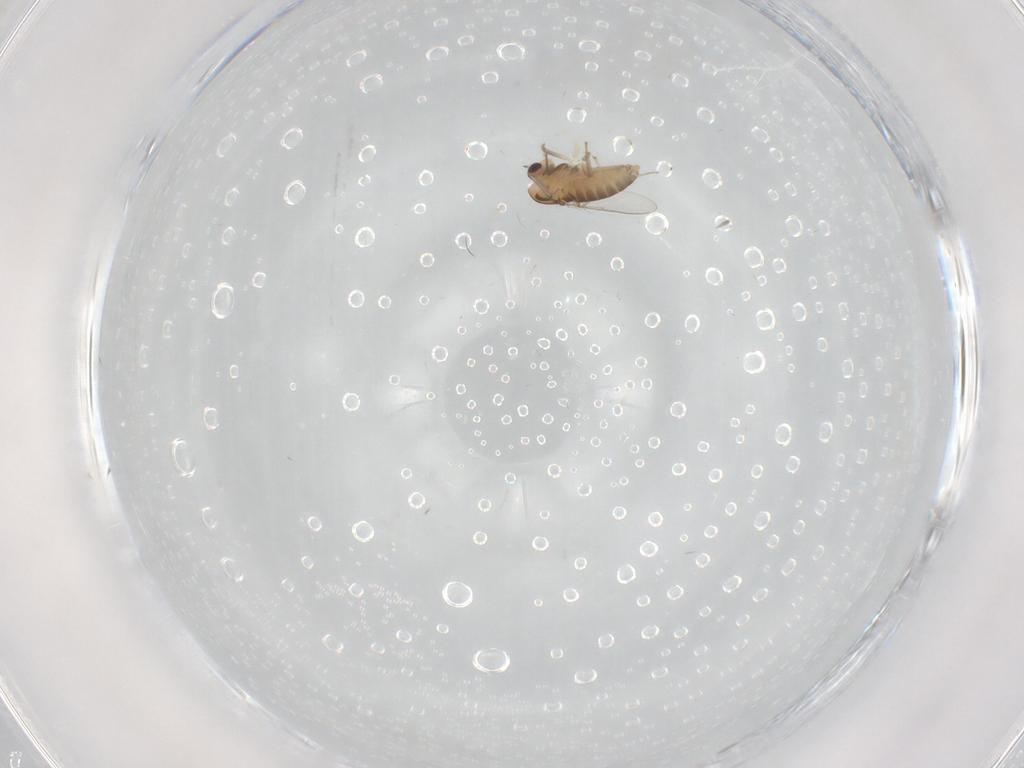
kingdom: Animalia
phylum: Arthropoda
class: Insecta
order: Diptera
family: Chironomidae
